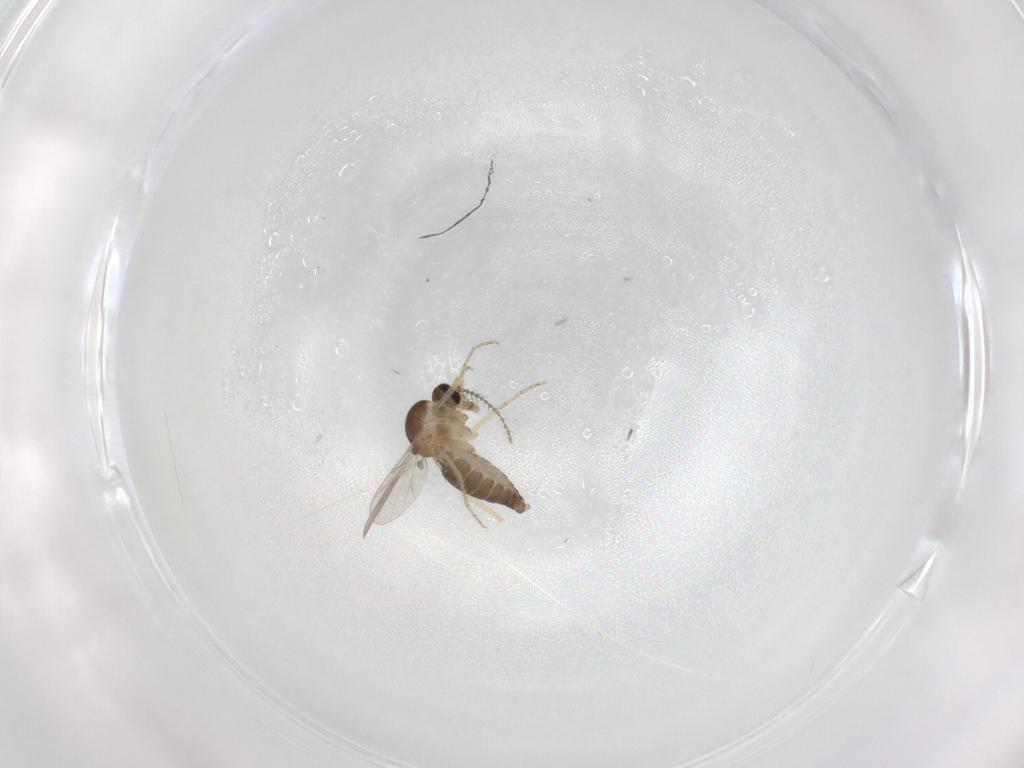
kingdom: Animalia
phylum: Arthropoda
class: Insecta
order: Diptera
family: Ceratopogonidae
